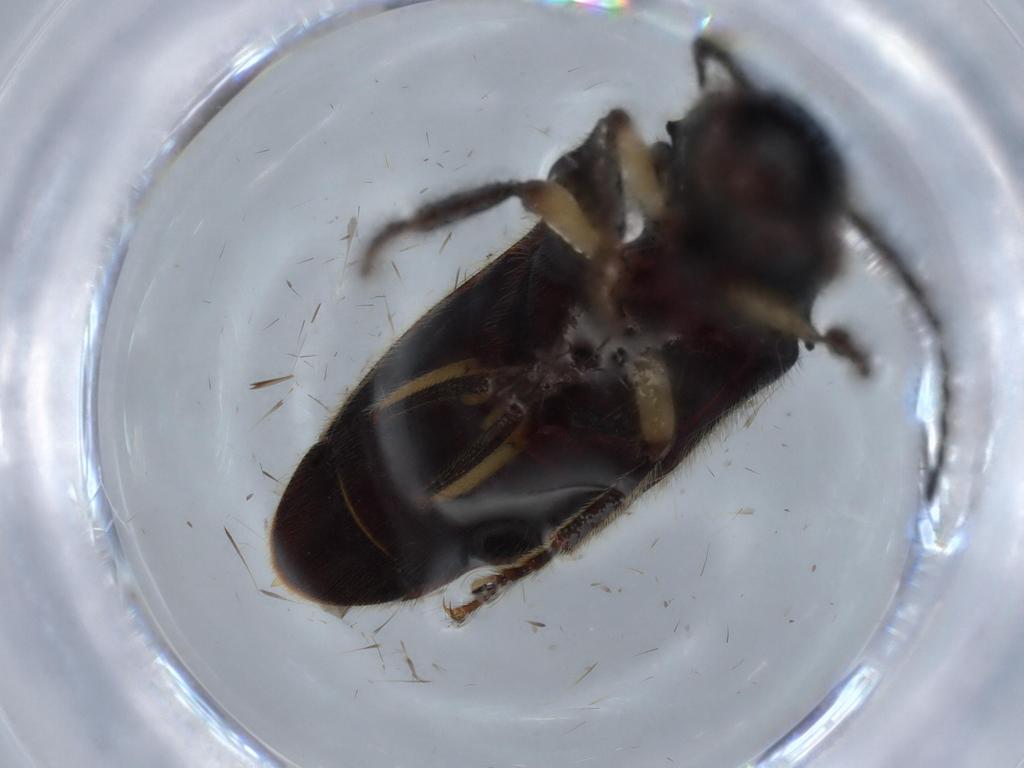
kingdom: Animalia
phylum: Arthropoda
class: Insecta
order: Coleoptera
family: Elateridae
